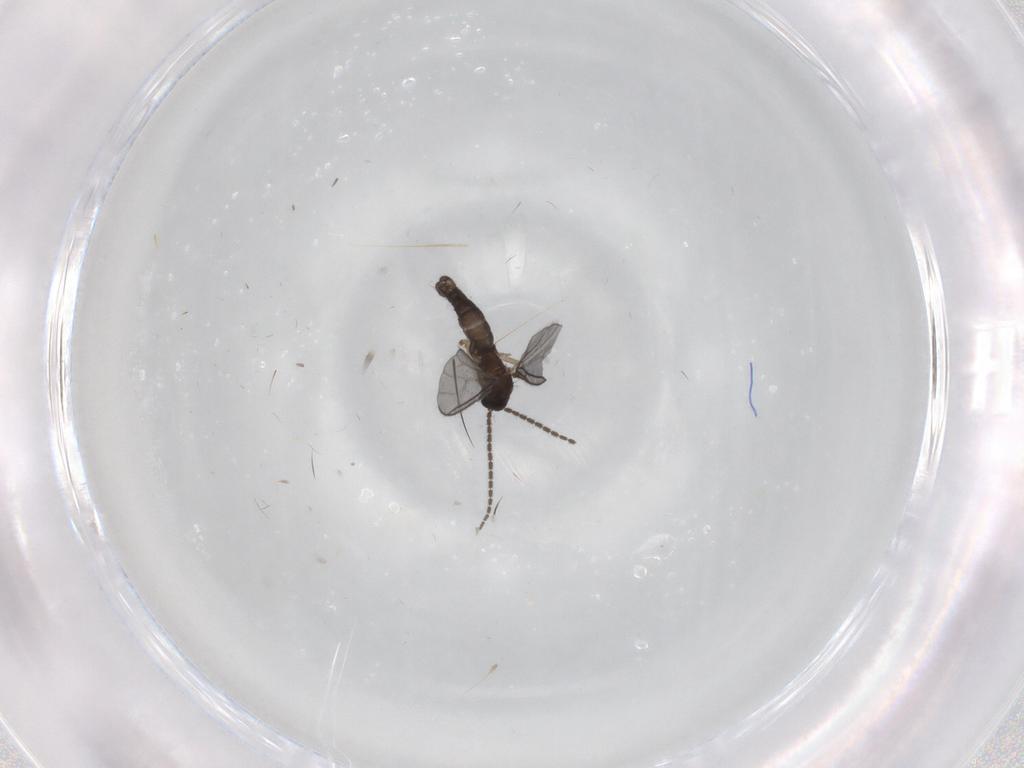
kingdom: Animalia
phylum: Arthropoda
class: Insecta
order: Diptera
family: Sciaridae
